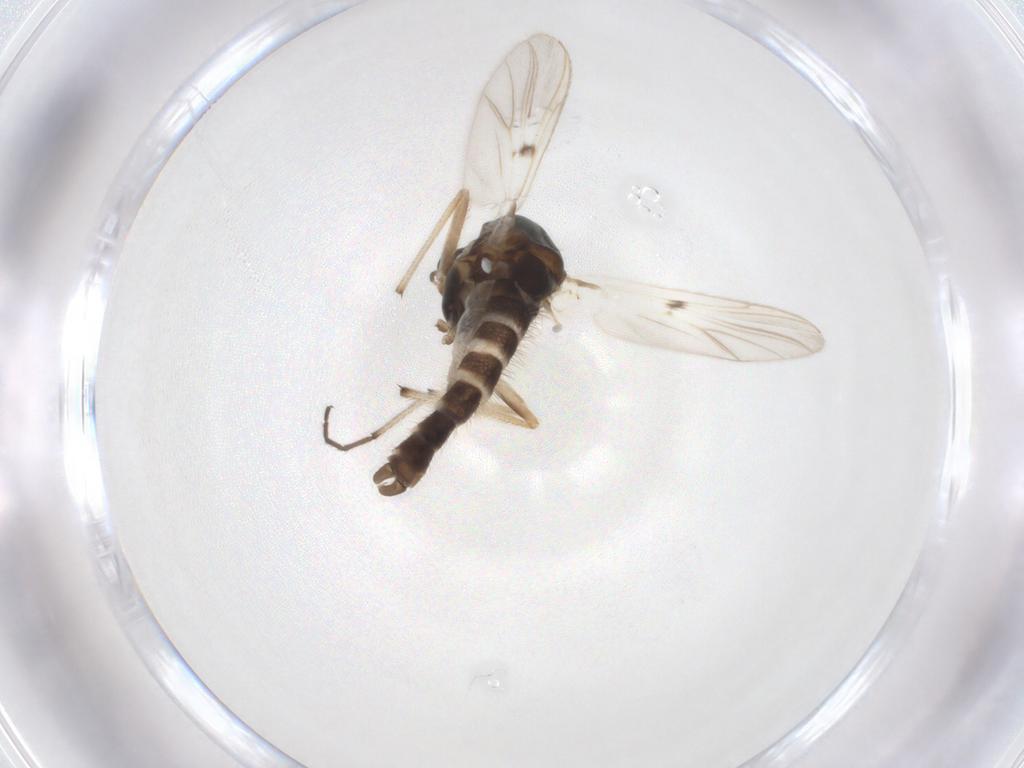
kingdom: Animalia
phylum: Arthropoda
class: Insecta
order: Diptera
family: Chironomidae
